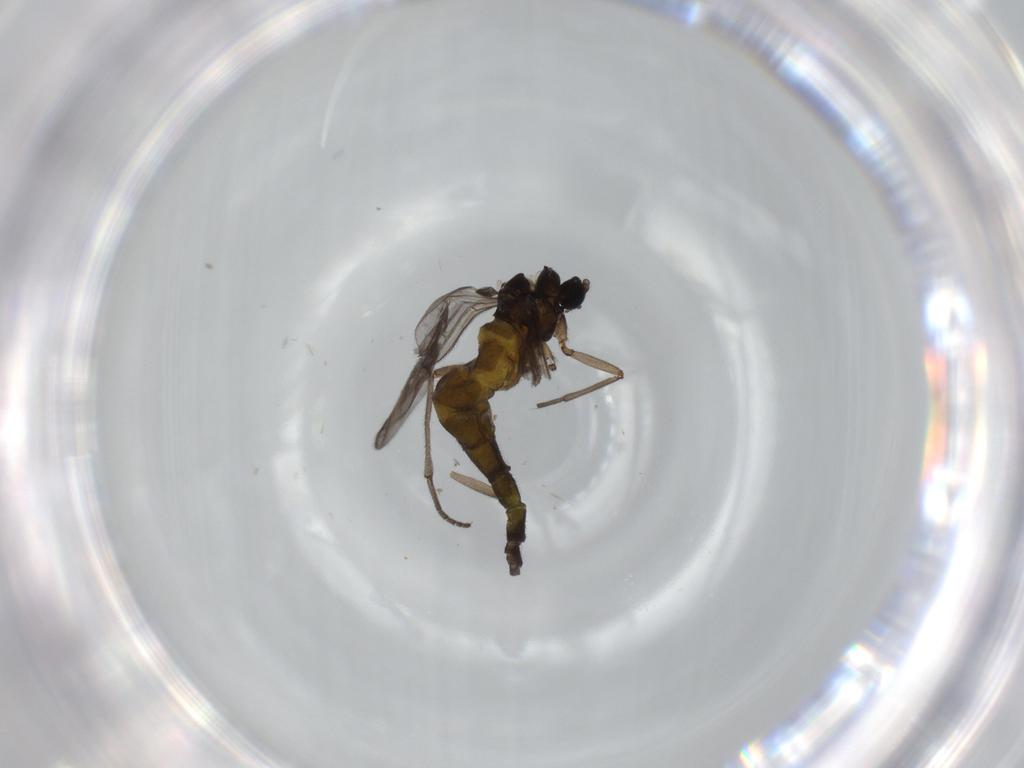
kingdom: Animalia
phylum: Arthropoda
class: Insecta
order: Diptera
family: Sciaridae
